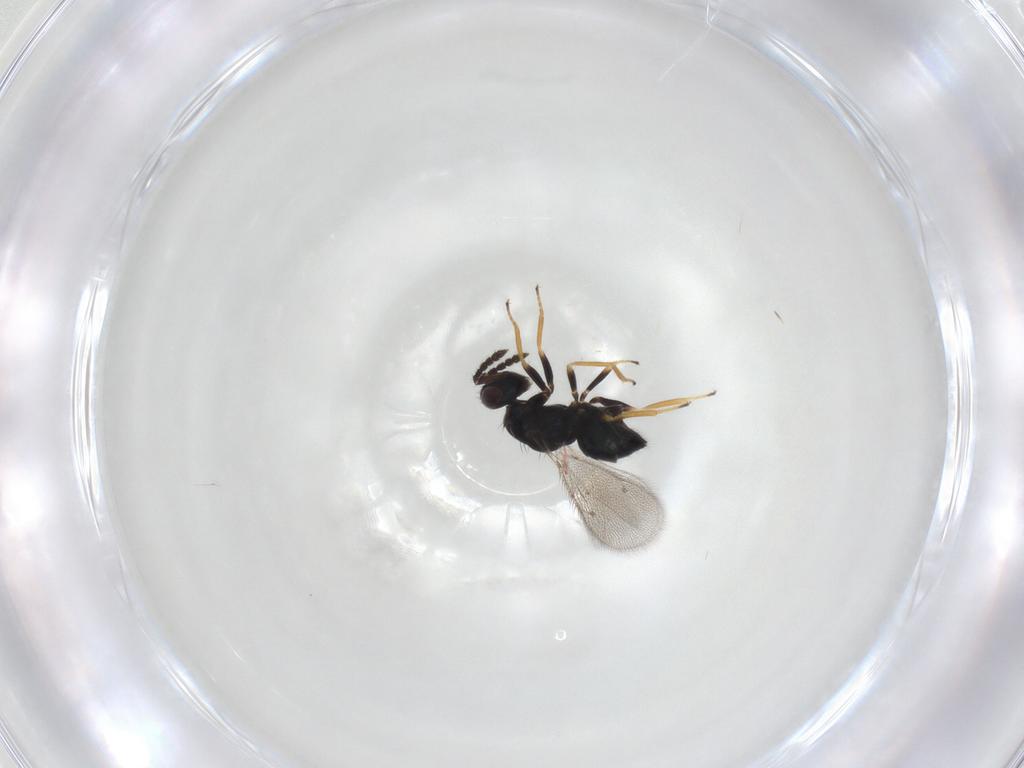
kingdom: Animalia
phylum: Arthropoda
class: Insecta
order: Hymenoptera
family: Eulophidae
